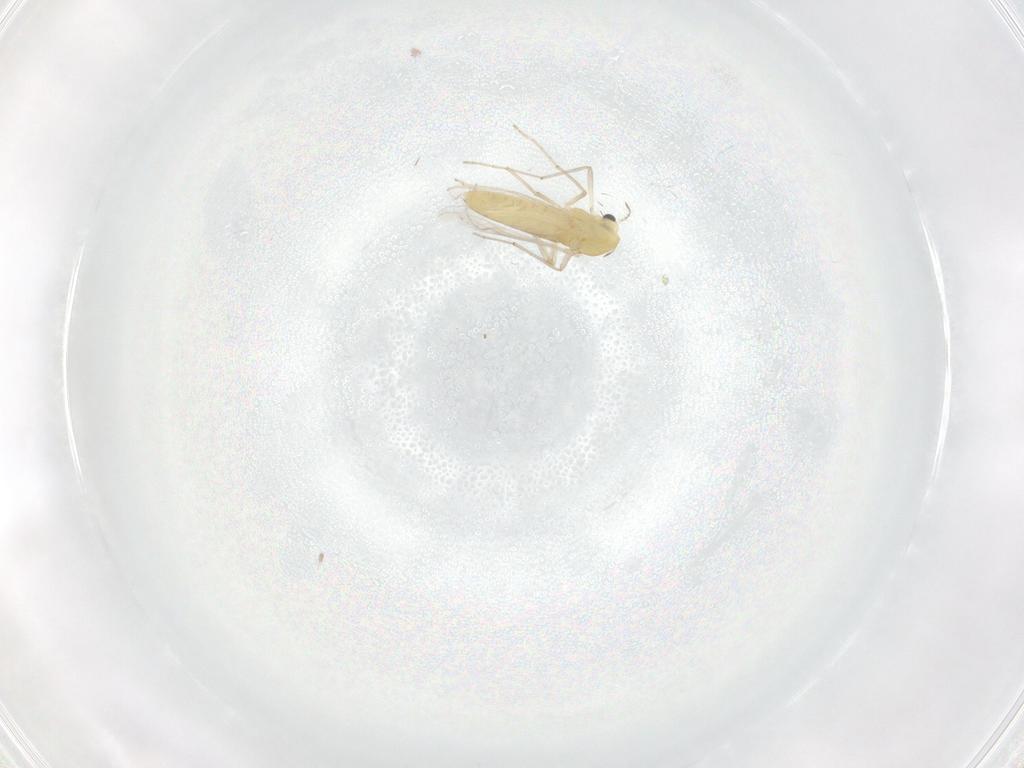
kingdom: Animalia
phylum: Arthropoda
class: Insecta
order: Diptera
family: Chironomidae
